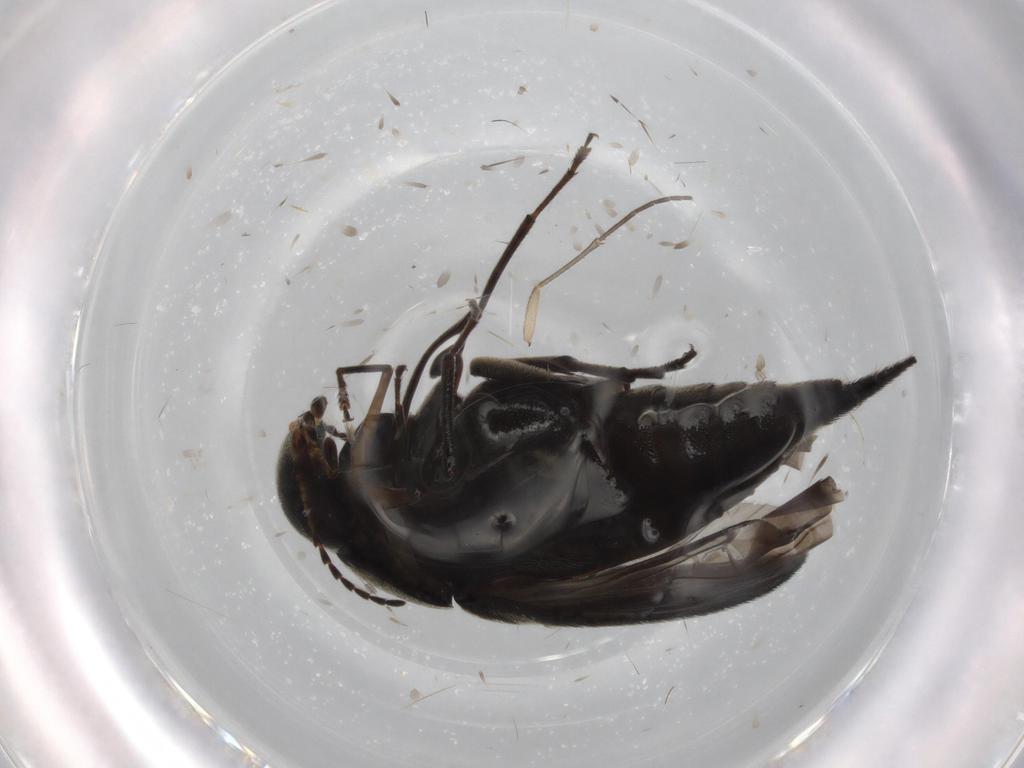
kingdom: Animalia
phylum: Arthropoda
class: Insecta
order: Coleoptera
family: Mordellidae
